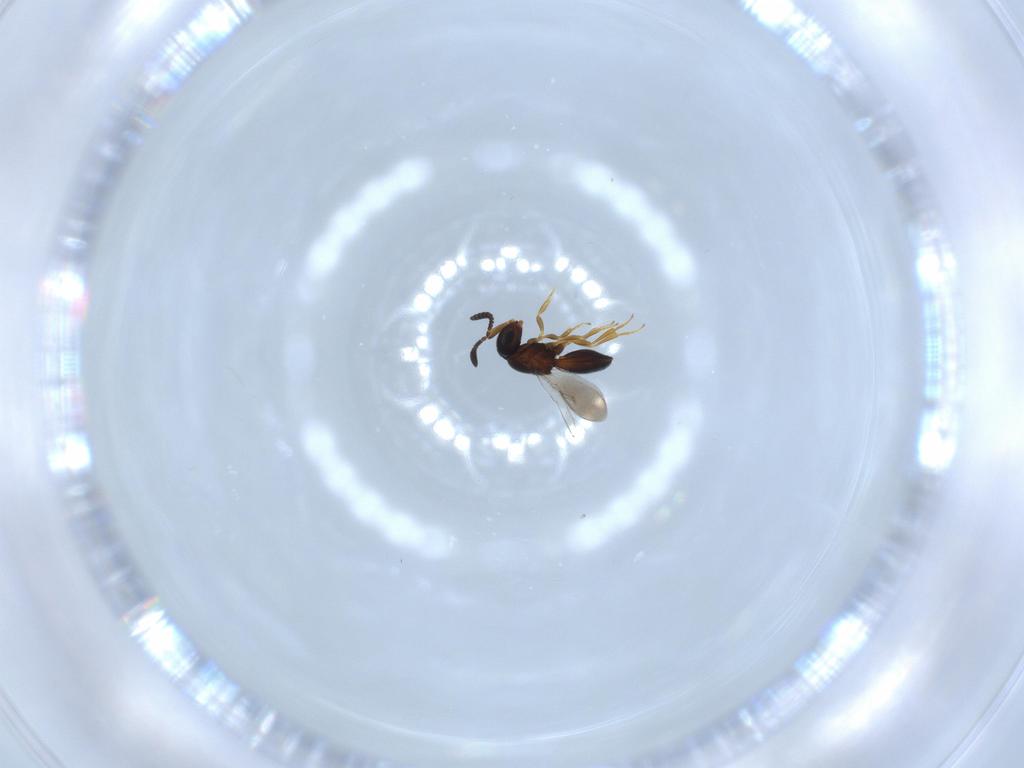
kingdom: Animalia
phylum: Arthropoda
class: Insecta
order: Hymenoptera
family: Scelionidae
